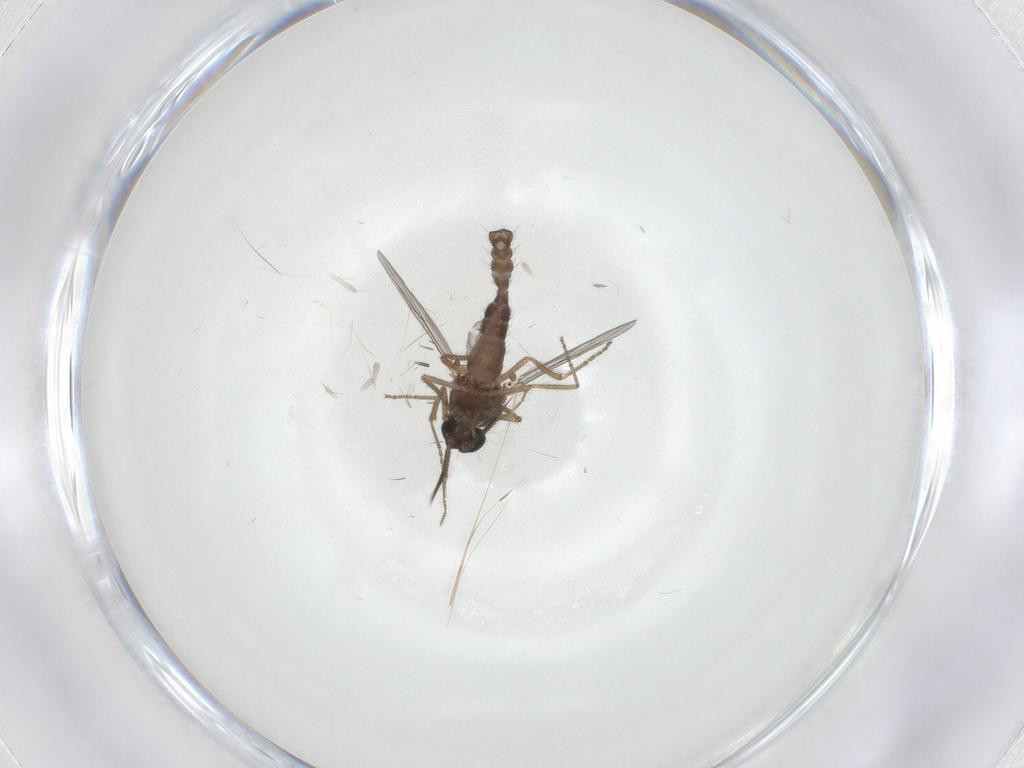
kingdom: Animalia
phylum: Arthropoda
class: Insecta
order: Diptera
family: Ceratopogonidae
